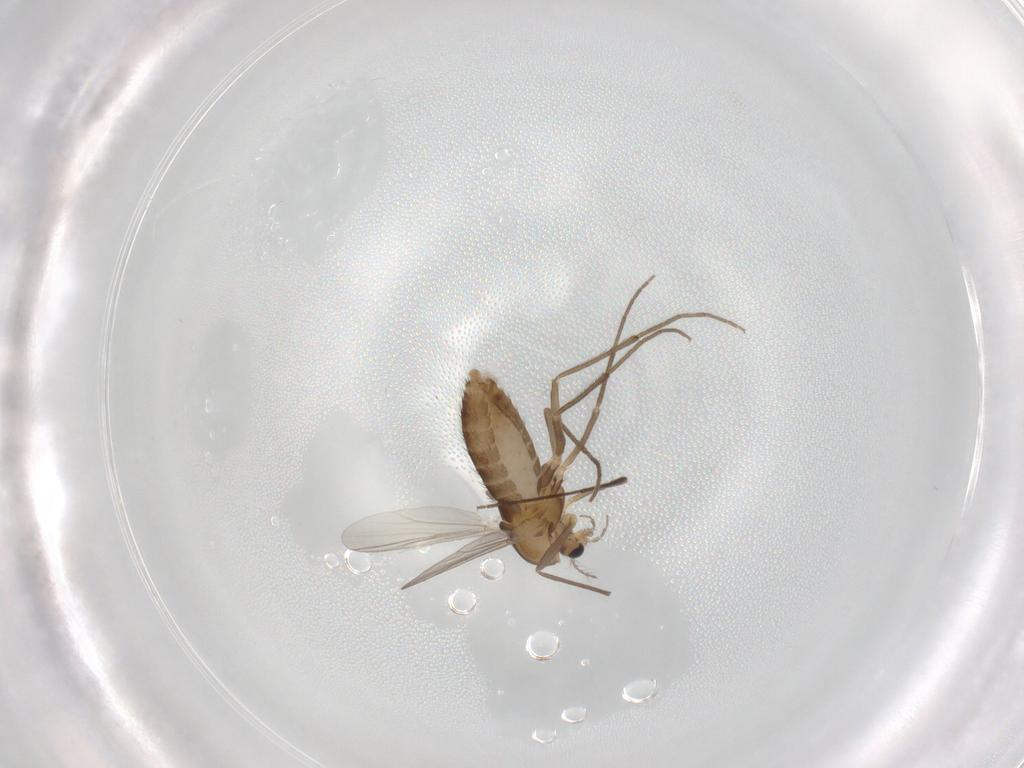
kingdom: Animalia
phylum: Arthropoda
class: Insecta
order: Diptera
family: Chironomidae
